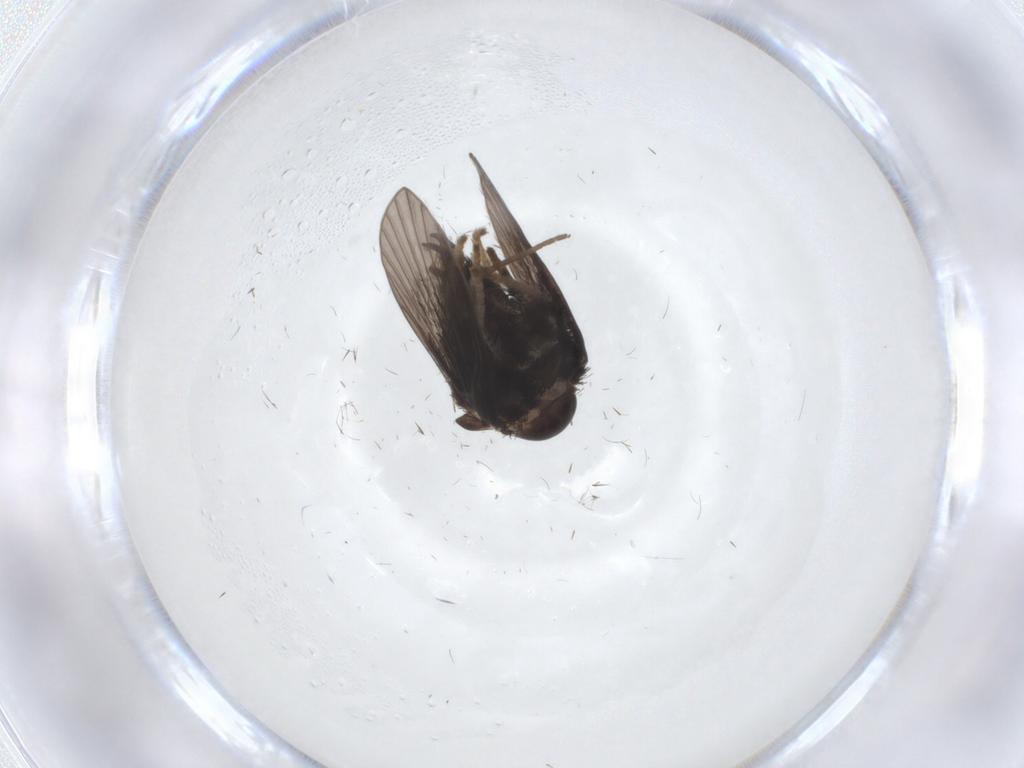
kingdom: Animalia
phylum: Arthropoda
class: Insecta
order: Diptera
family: Psychodidae
